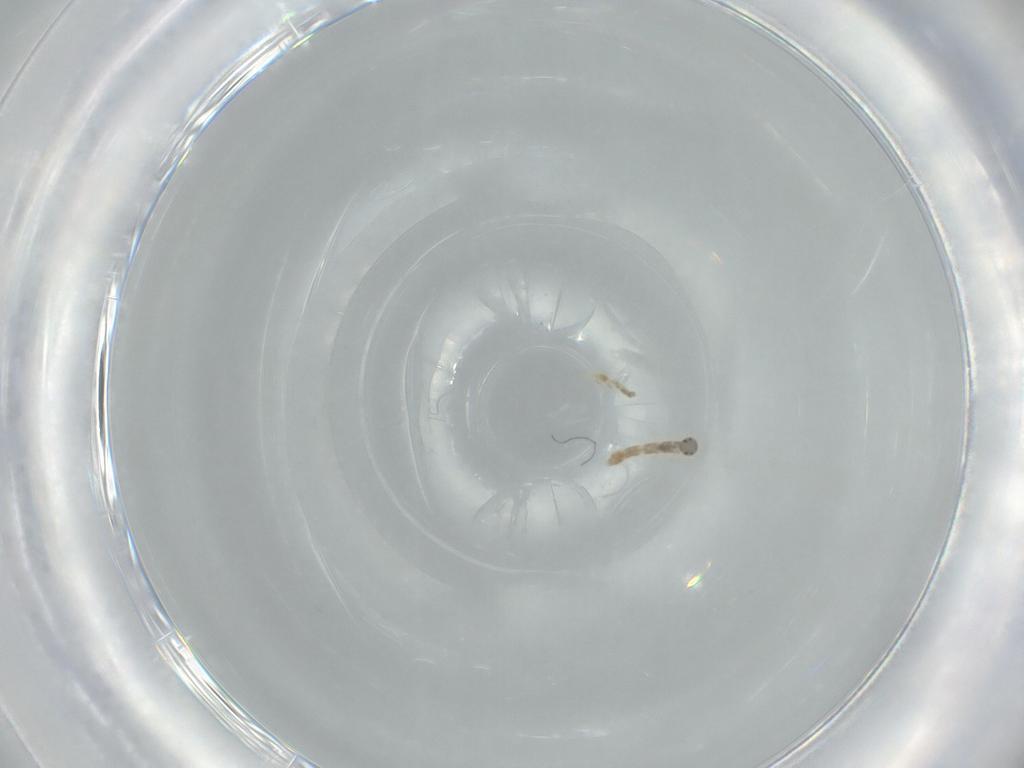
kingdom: Animalia
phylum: Arthropoda
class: Insecta
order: Diptera
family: Chironomidae
